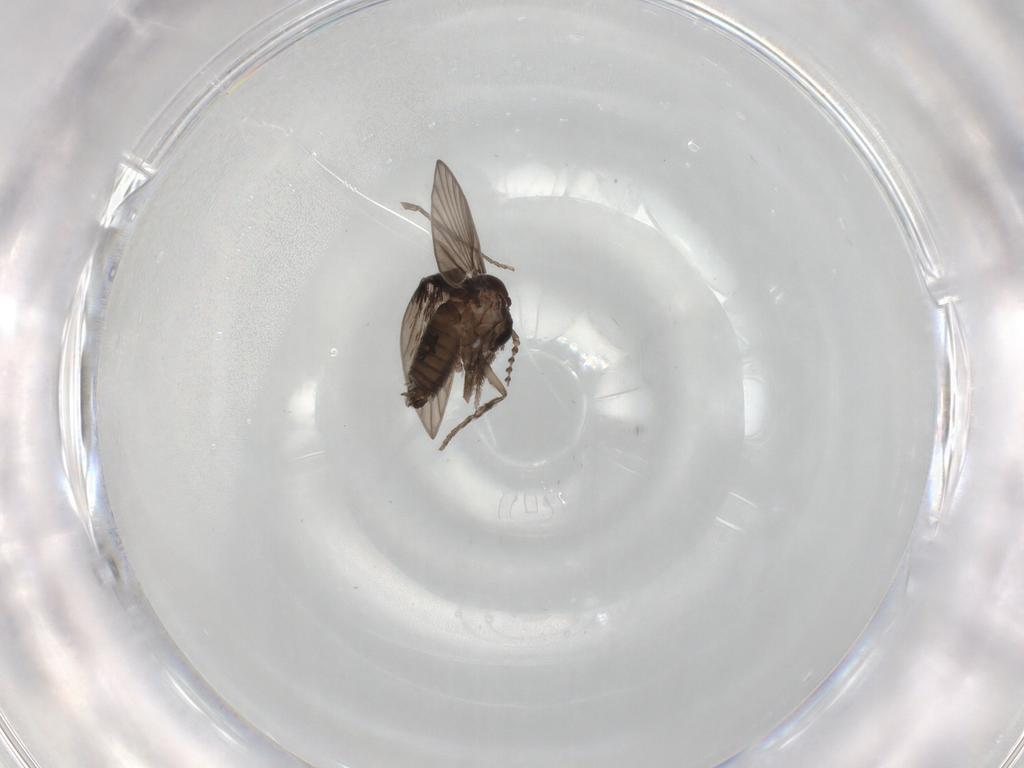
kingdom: Animalia
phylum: Arthropoda
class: Insecta
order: Diptera
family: Psychodidae
